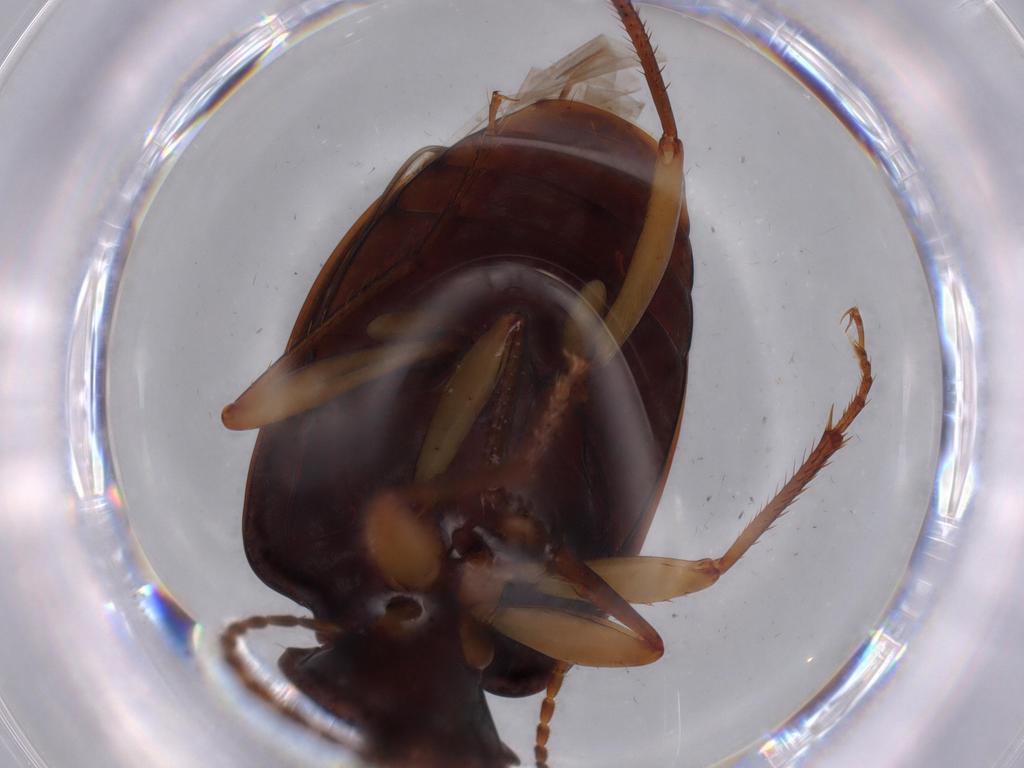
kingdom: Animalia
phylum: Arthropoda
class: Insecta
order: Coleoptera
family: Carabidae
